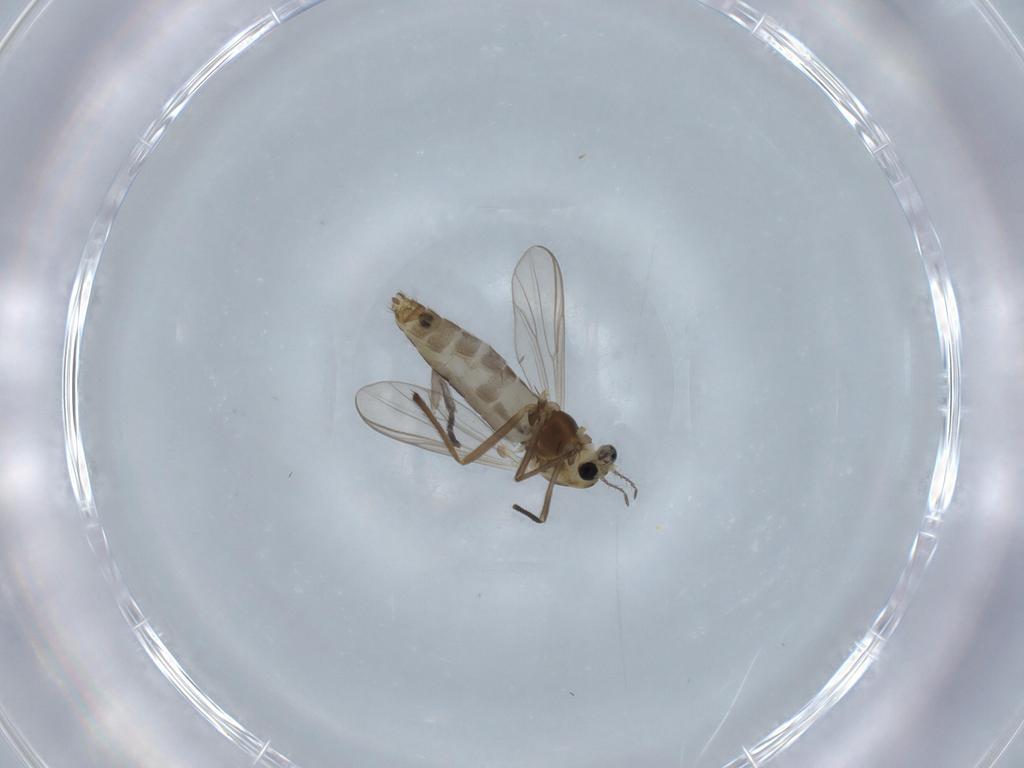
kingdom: Animalia
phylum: Arthropoda
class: Insecta
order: Diptera
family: Chironomidae
